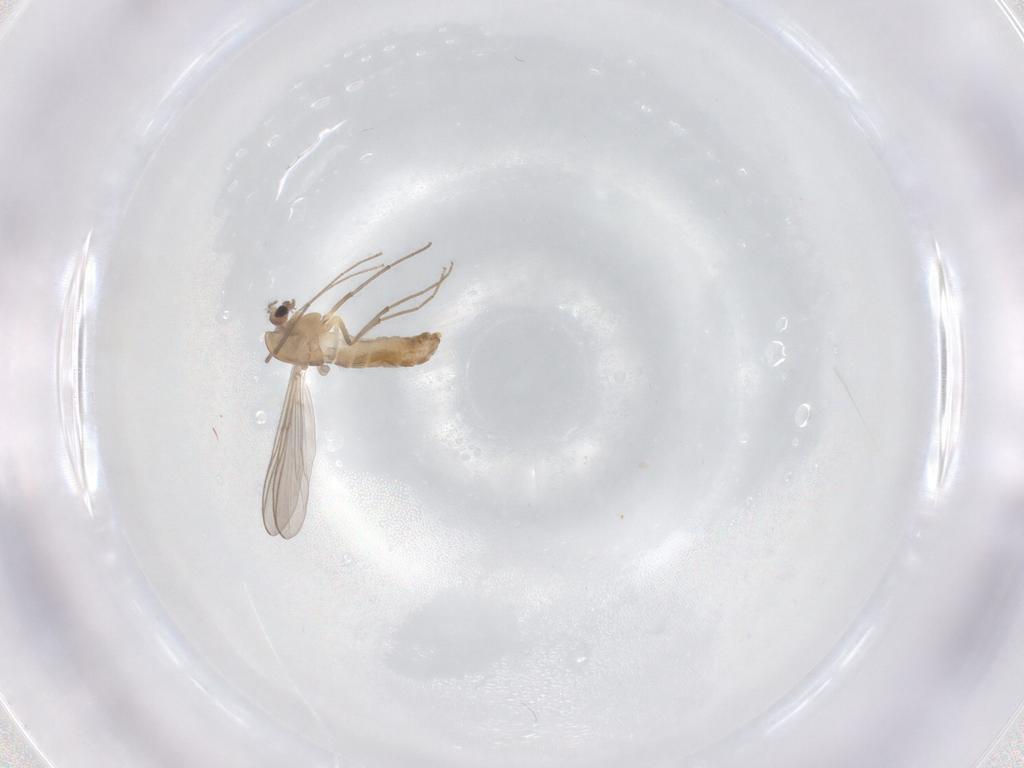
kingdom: Animalia
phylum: Arthropoda
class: Insecta
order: Diptera
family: Chironomidae
